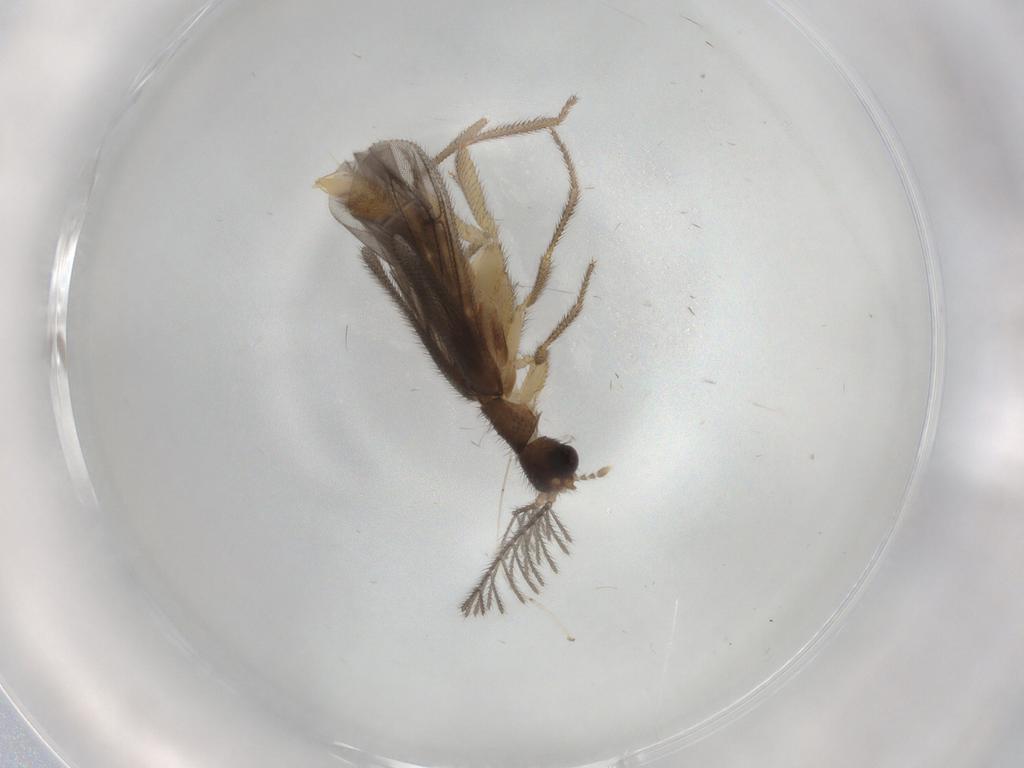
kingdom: Animalia
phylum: Arthropoda
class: Insecta
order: Coleoptera
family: Phengodidae
